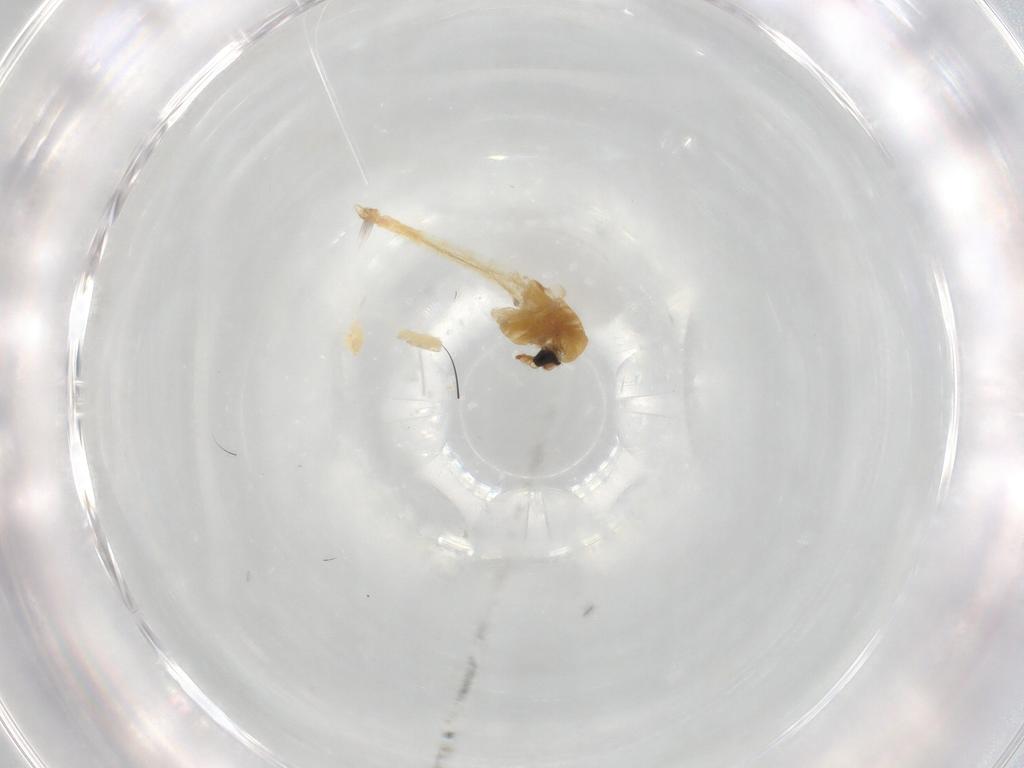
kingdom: Animalia
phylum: Arthropoda
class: Insecta
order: Diptera
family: Chironomidae
